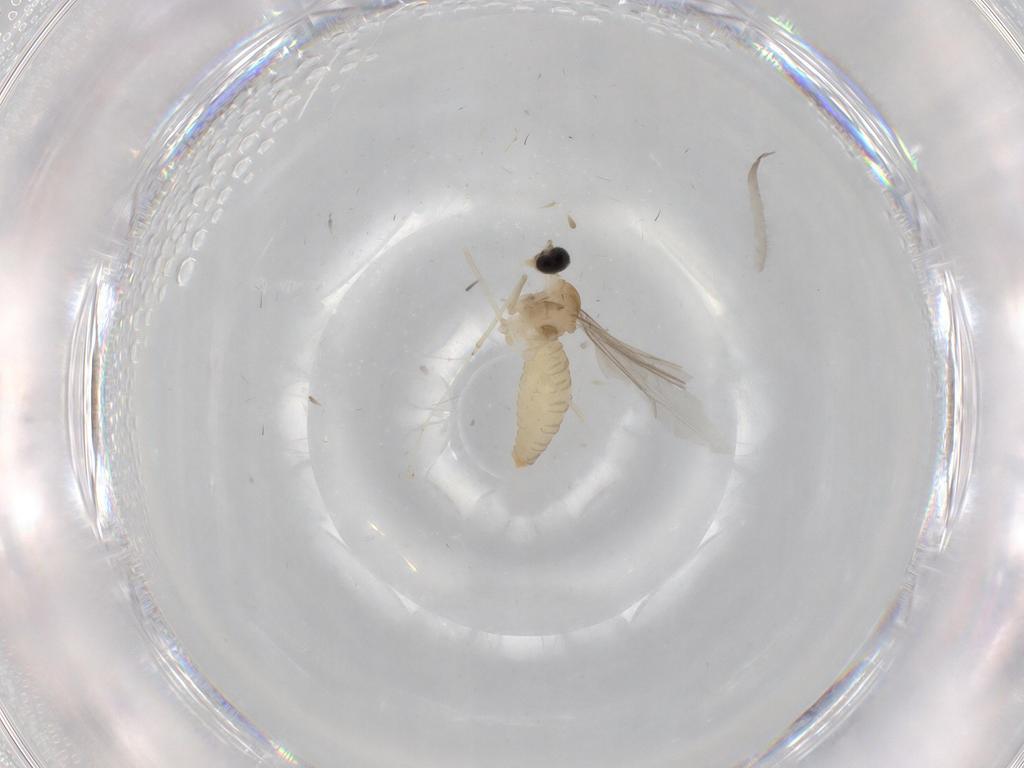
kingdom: Animalia
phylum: Arthropoda
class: Insecta
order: Diptera
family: Cecidomyiidae
